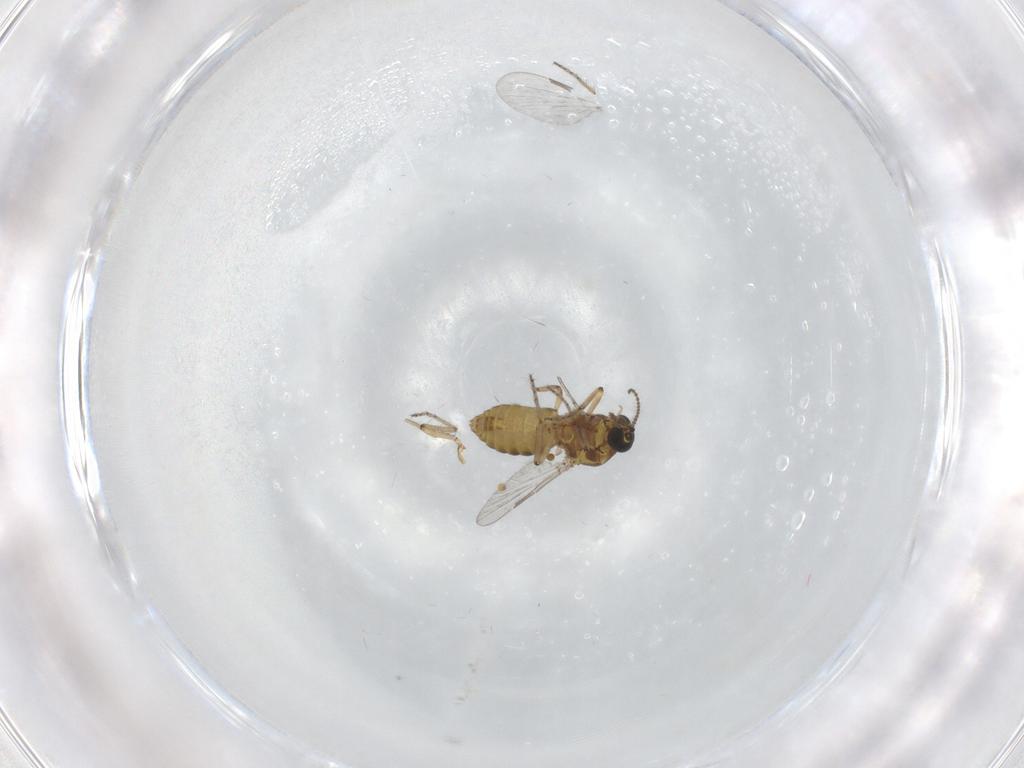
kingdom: Animalia
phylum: Arthropoda
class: Insecta
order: Diptera
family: Ceratopogonidae
